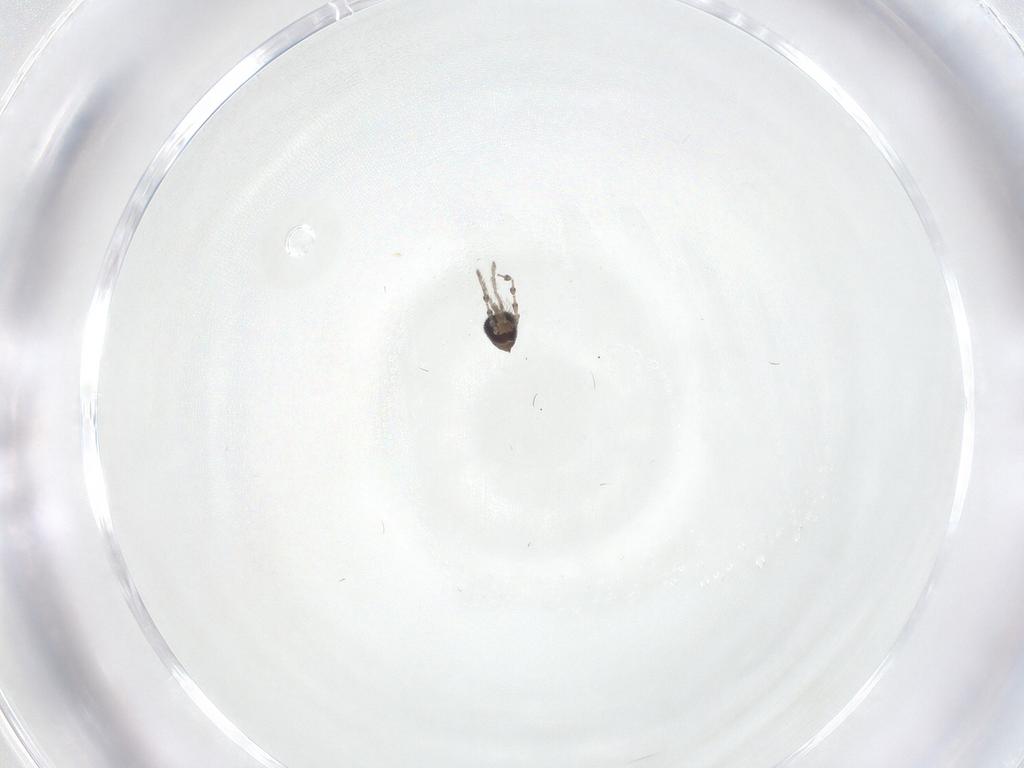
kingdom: Animalia
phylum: Arthropoda
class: Insecta
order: Diptera
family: Psychodidae
